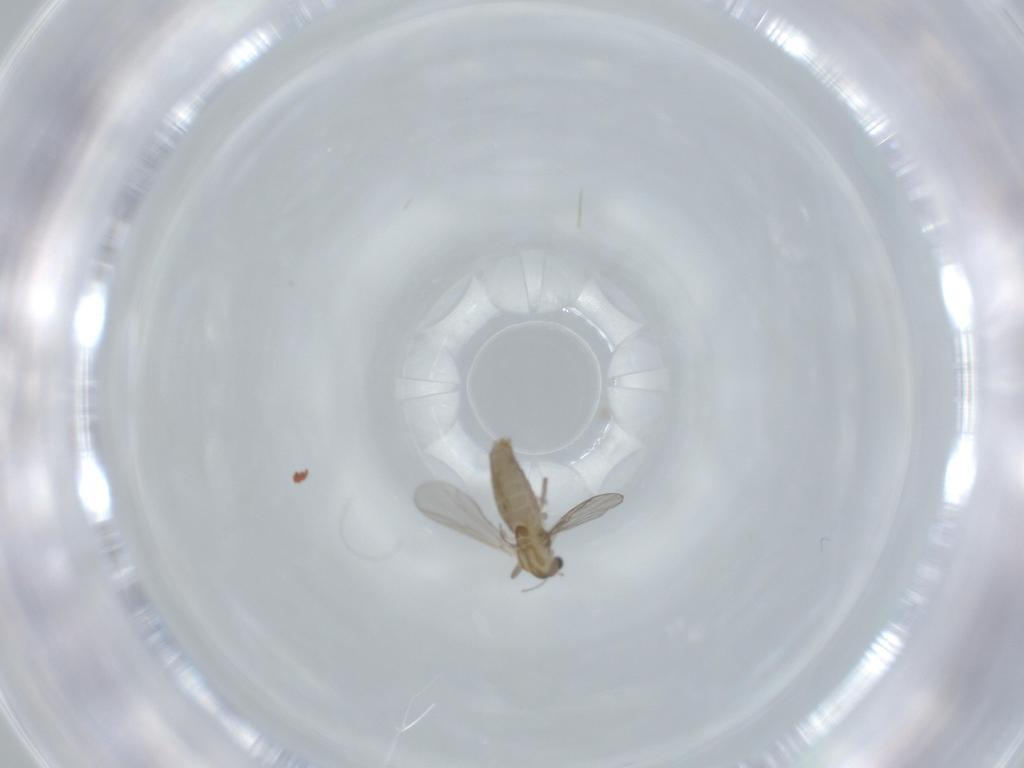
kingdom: Animalia
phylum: Arthropoda
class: Insecta
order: Diptera
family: Chironomidae
